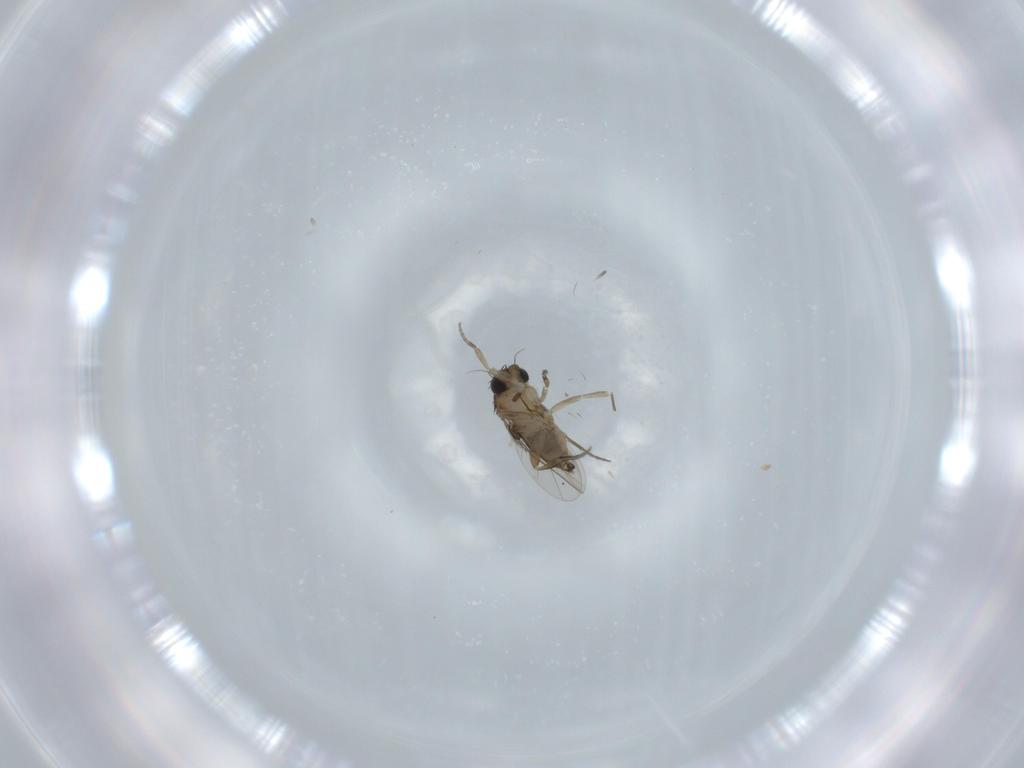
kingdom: Animalia
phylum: Arthropoda
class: Insecta
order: Diptera
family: Phoridae
